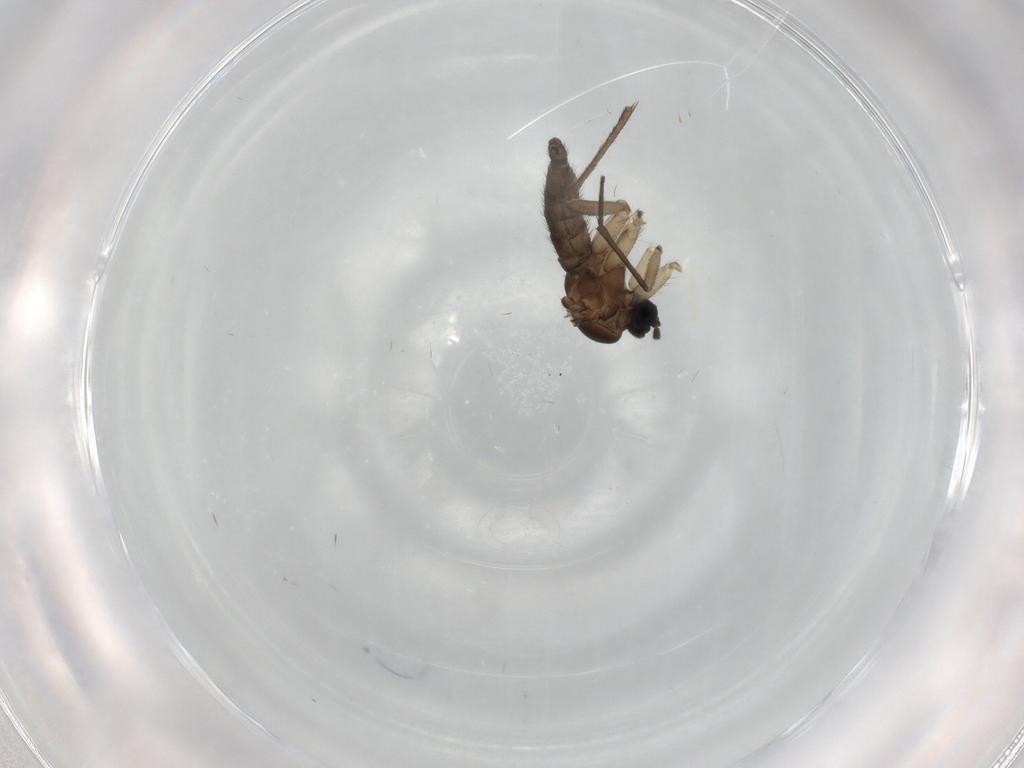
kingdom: Animalia
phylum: Arthropoda
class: Insecta
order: Diptera
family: Sciaridae
